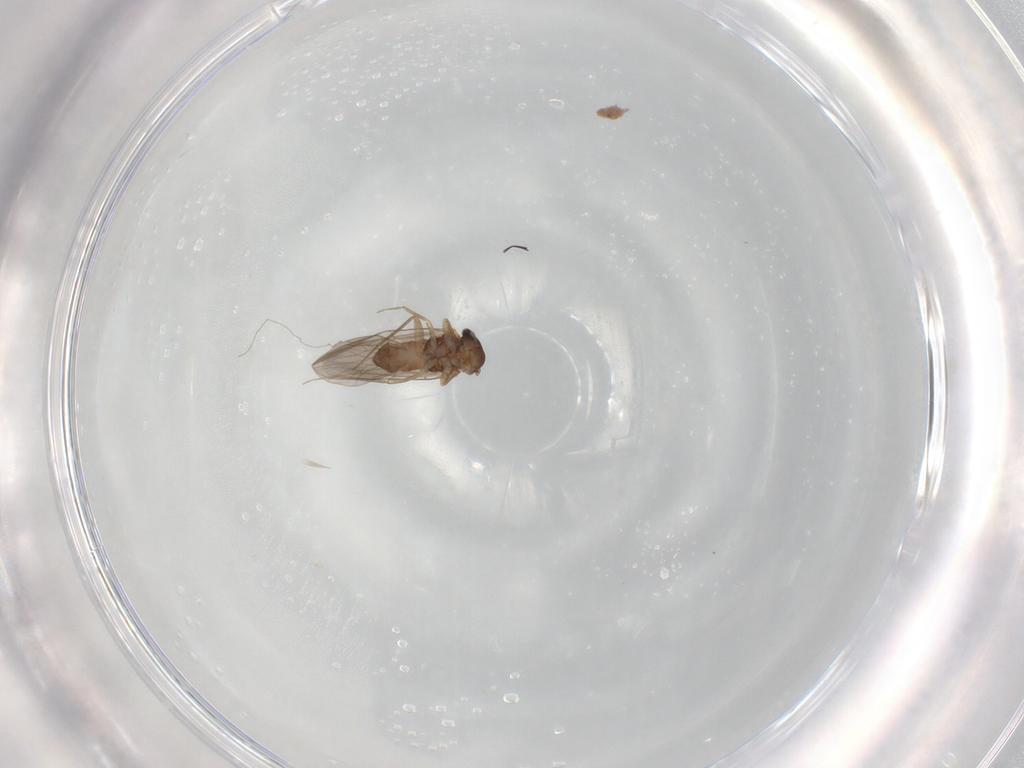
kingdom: Animalia
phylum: Arthropoda
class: Insecta
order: Psocodea
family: Lepidopsocidae
